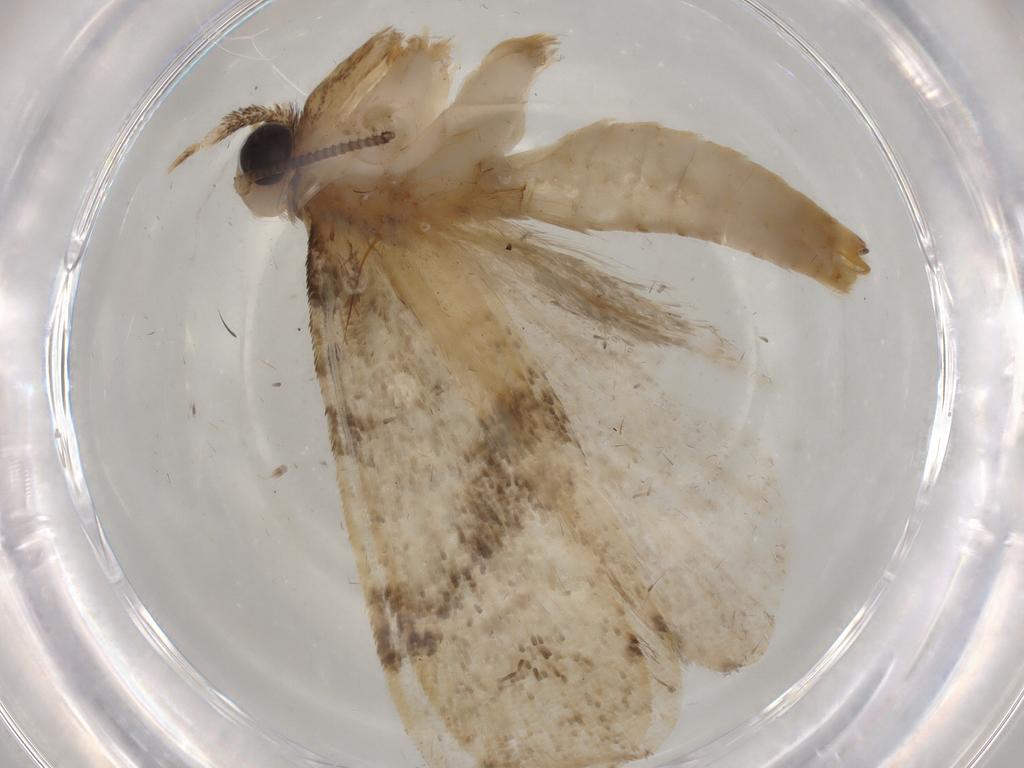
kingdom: Animalia
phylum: Arthropoda
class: Insecta
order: Lepidoptera
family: Tineidae
